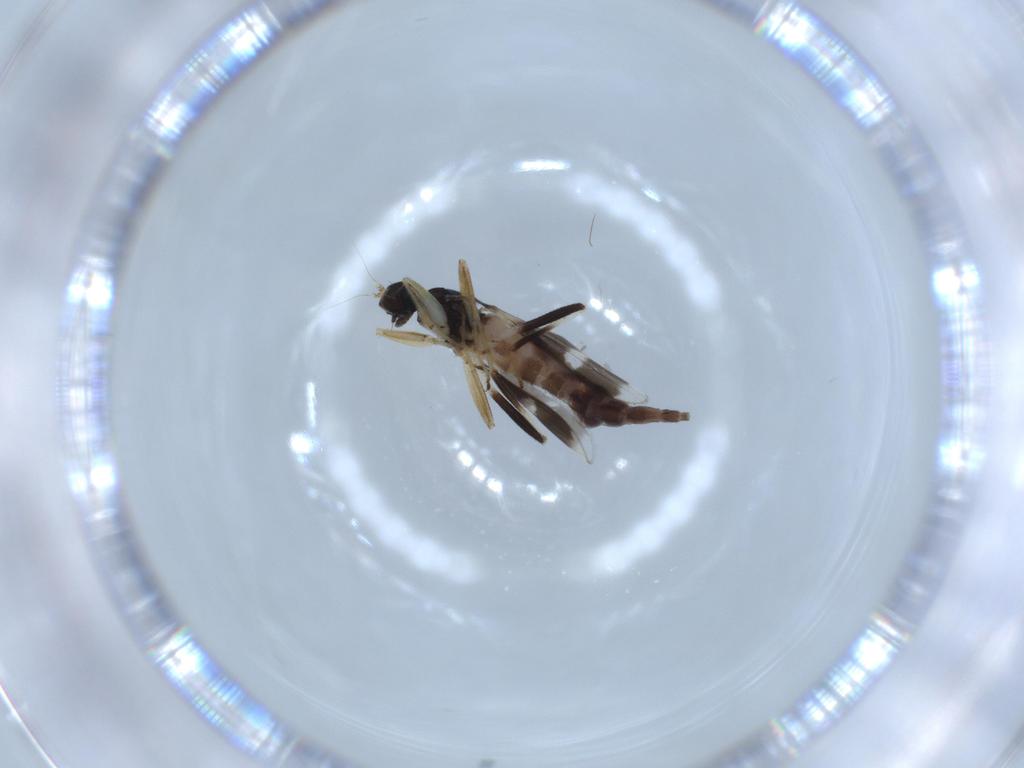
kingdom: Animalia
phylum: Arthropoda
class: Insecta
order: Diptera
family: Hybotidae
